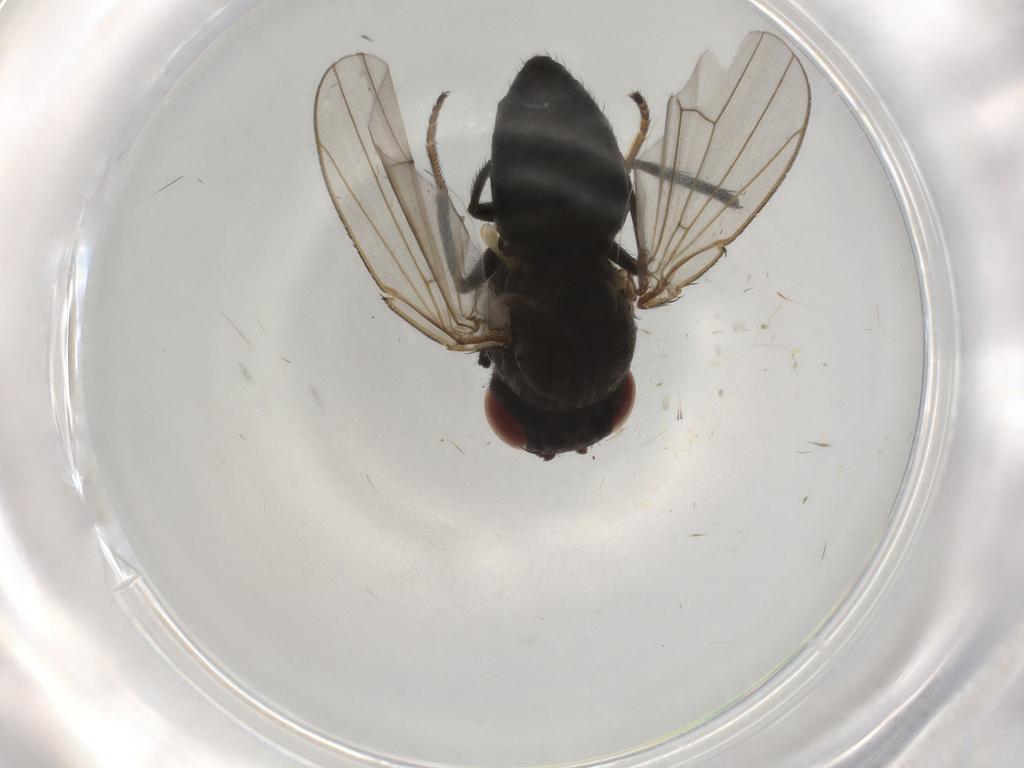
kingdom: Animalia
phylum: Arthropoda
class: Insecta
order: Diptera
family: Ephydridae
